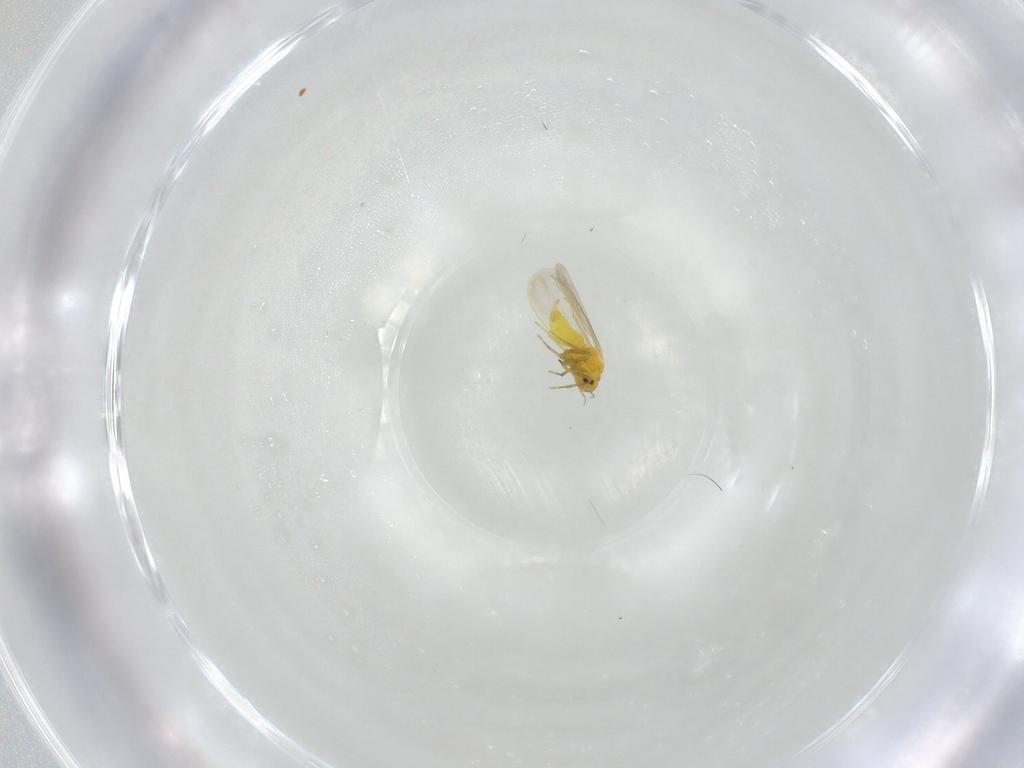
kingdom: Animalia
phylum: Arthropoda
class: Insecta
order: Hemiptera
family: Aleyrodidae
